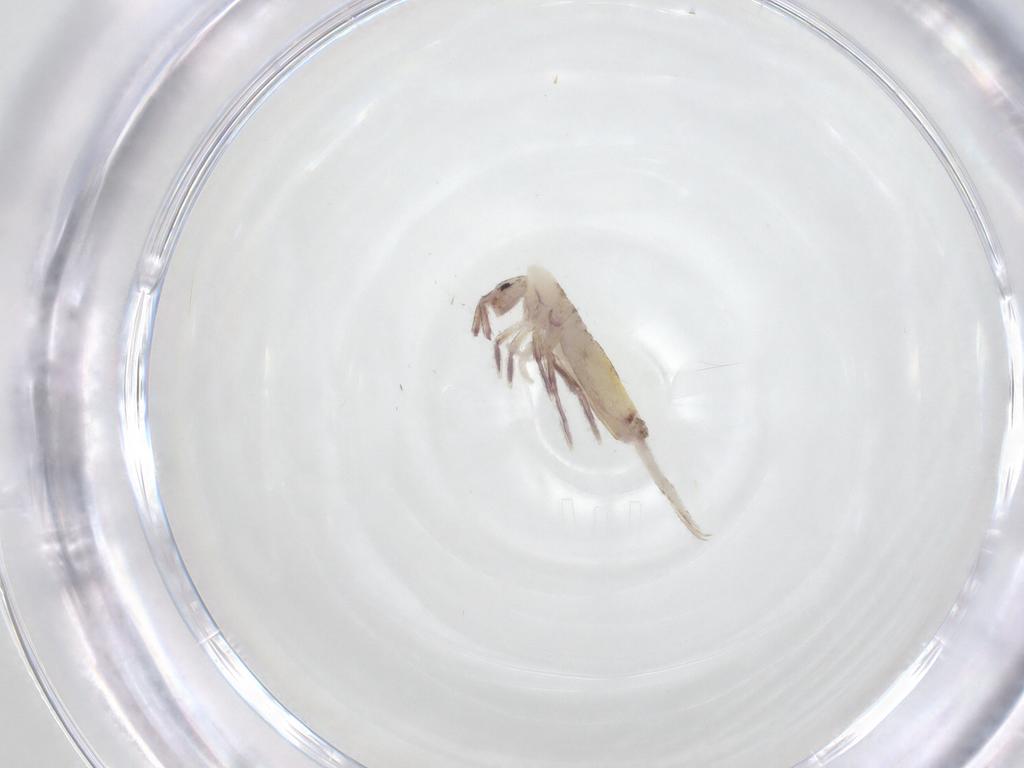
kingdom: Animalia
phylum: Arthropoda
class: Collembola
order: Entomobryomorpha
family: Entomobryidae
